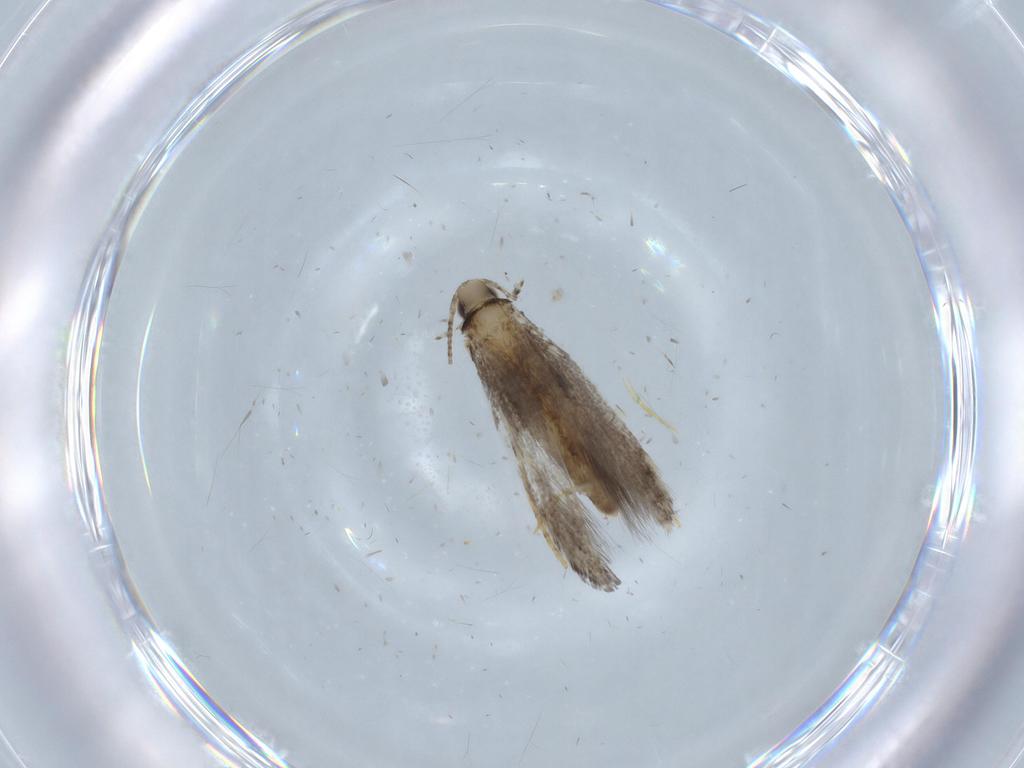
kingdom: Animalia
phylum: Arthropoda
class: Insecta
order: Lepidoptera
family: Gracillariidae
